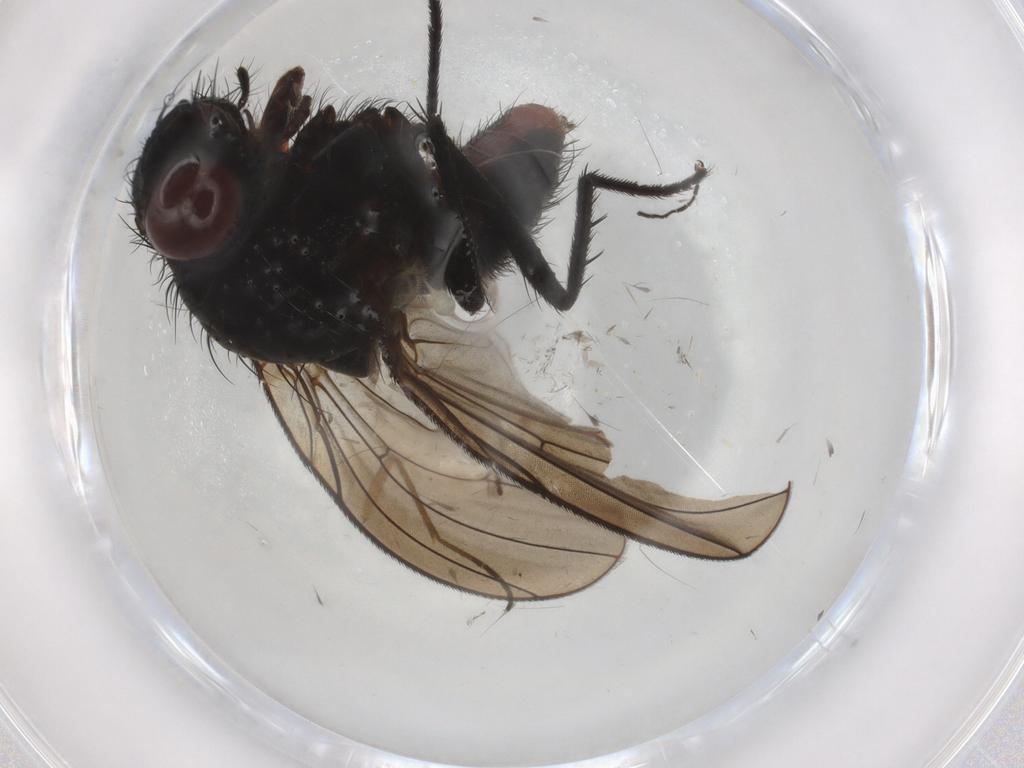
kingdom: Animalia
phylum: Arthropoda
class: Insecta
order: Diptera
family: Anthomyiidae
